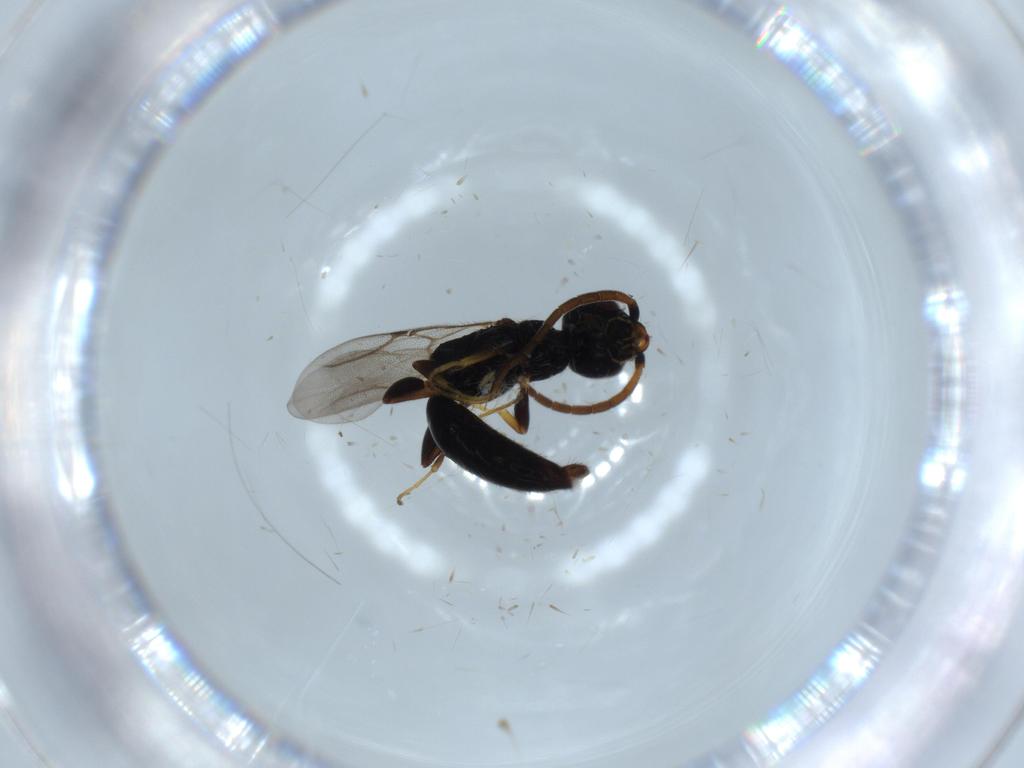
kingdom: Animalia
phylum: Arthropoda
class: Insecta
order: Hymenoptera
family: Bethylidae
